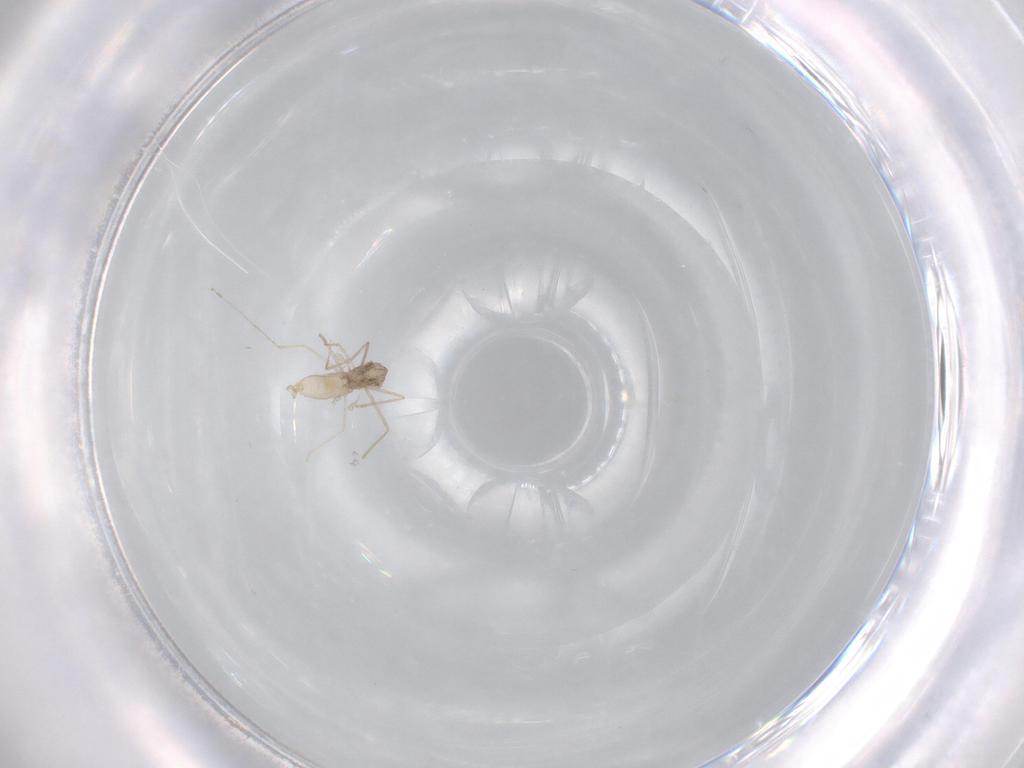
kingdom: Animalia
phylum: Arthropoda
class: Insecta
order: Diptera
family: Cecidomyiidae
